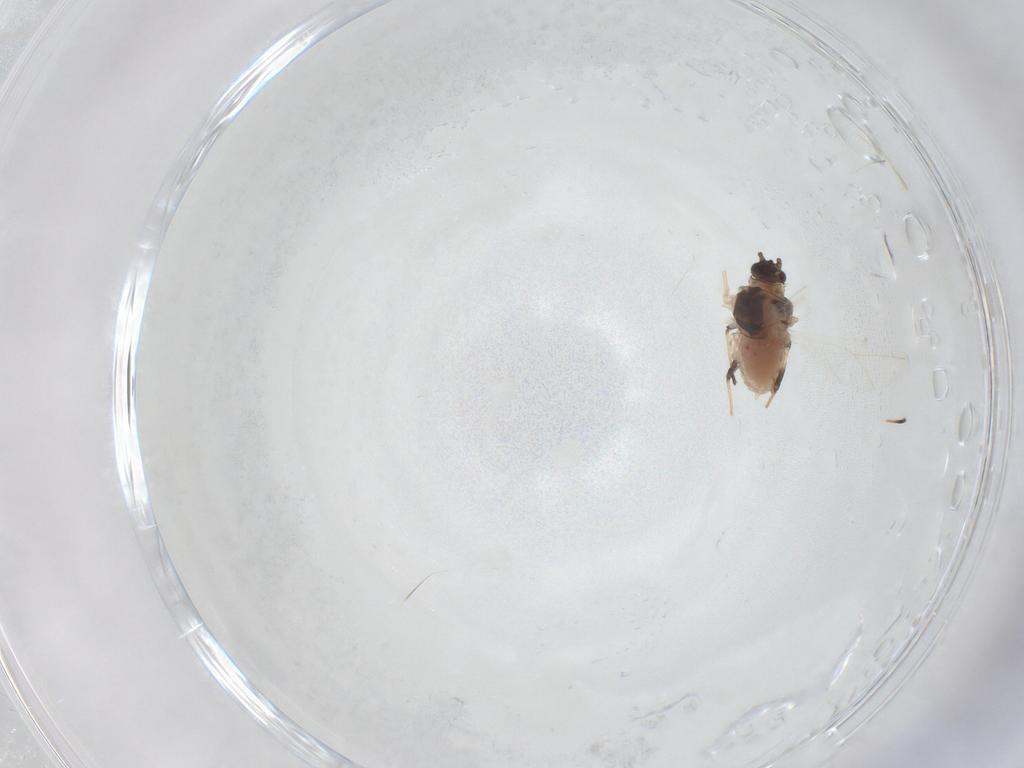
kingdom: Animalia
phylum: Arthropoda
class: Insecta
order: Hemiptera
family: Aphididae
